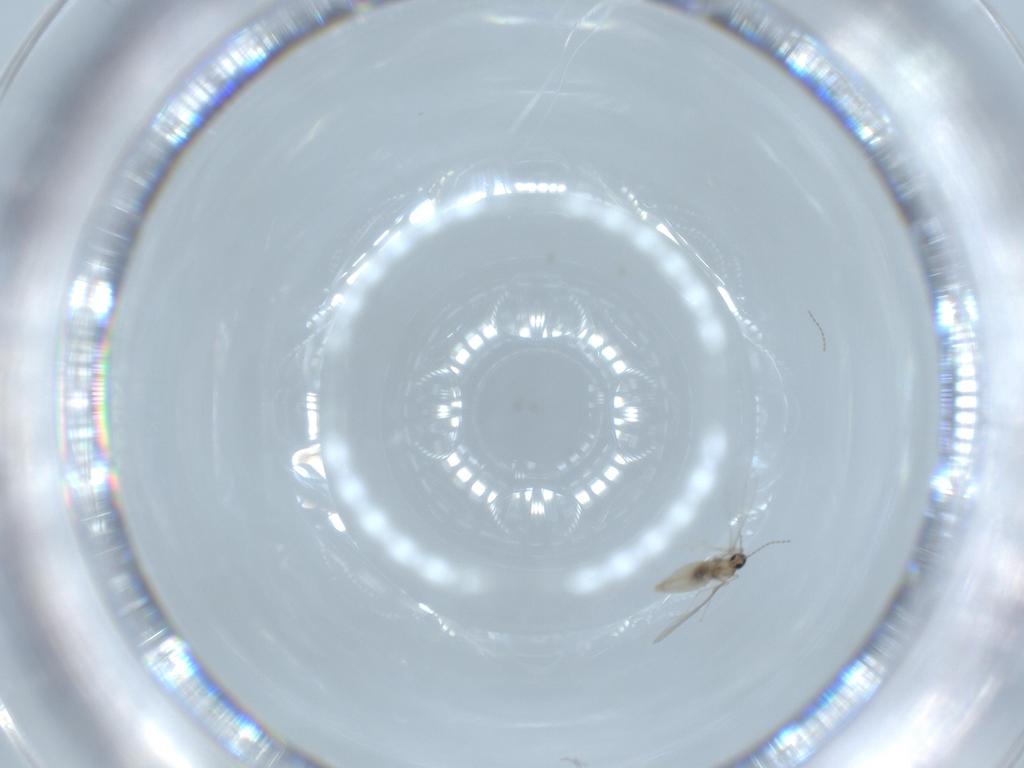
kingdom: Animalia
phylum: Arthropoda
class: Insecta
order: Diptera
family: Cecidomyiidae
